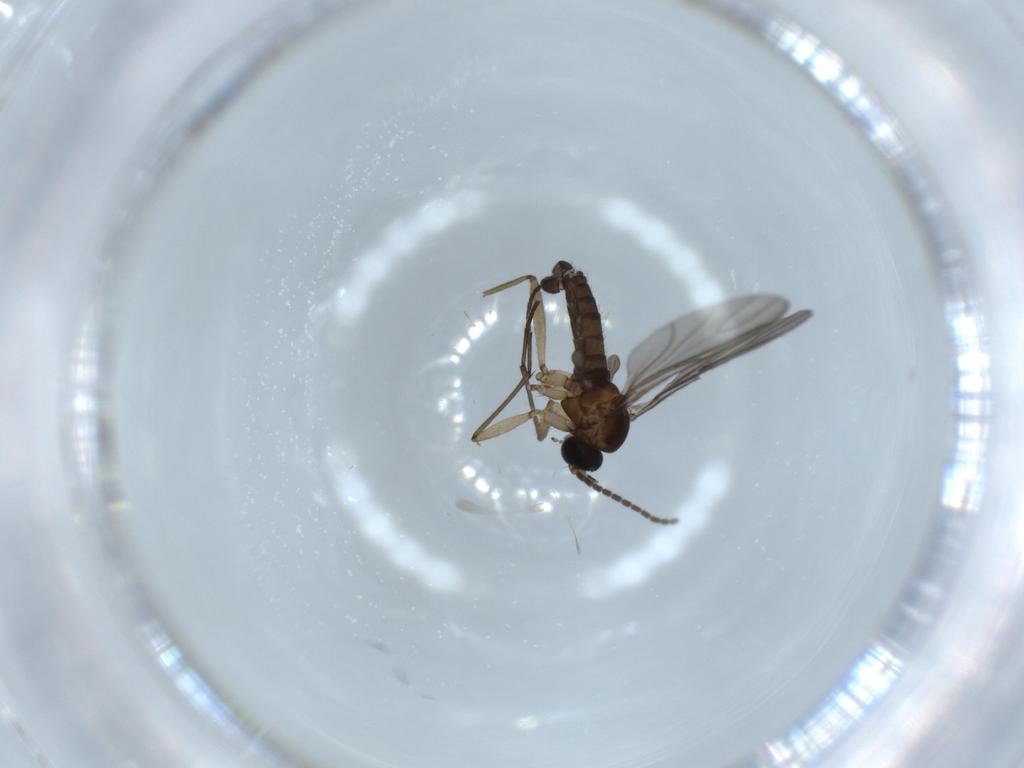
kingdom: Animalia
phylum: Arthropoda
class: Insecta
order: Diptera
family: Sciaridae
